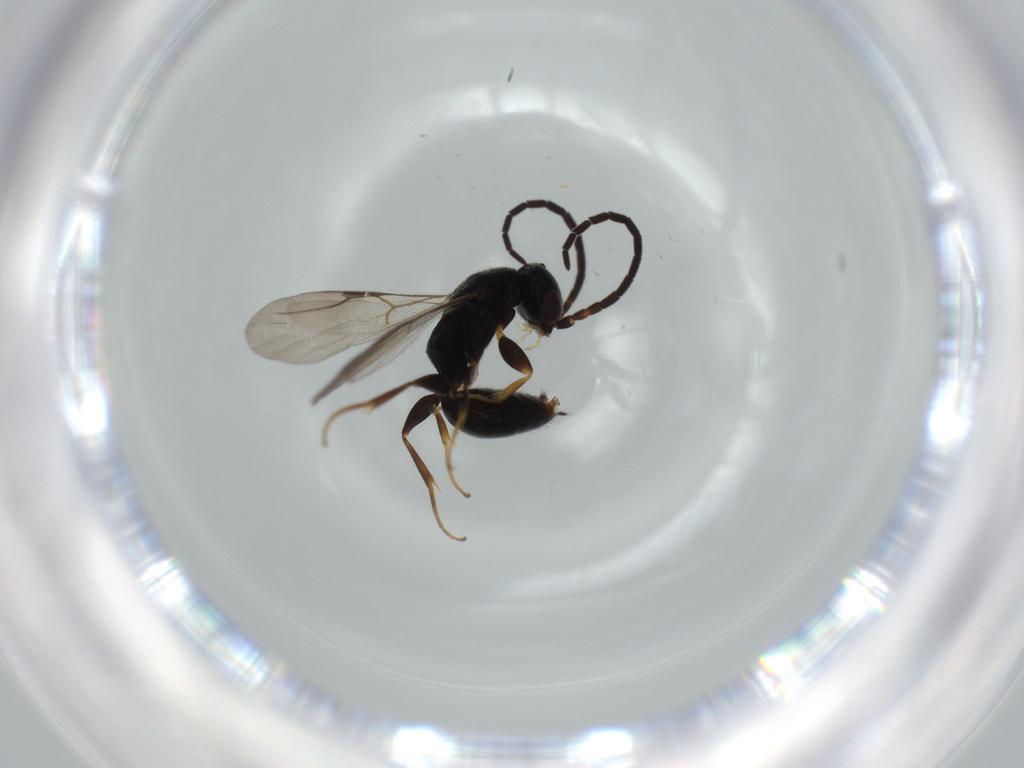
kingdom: Animalia
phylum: Arthropoda
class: Insecta
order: Hymenoptera
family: Bethylidae
